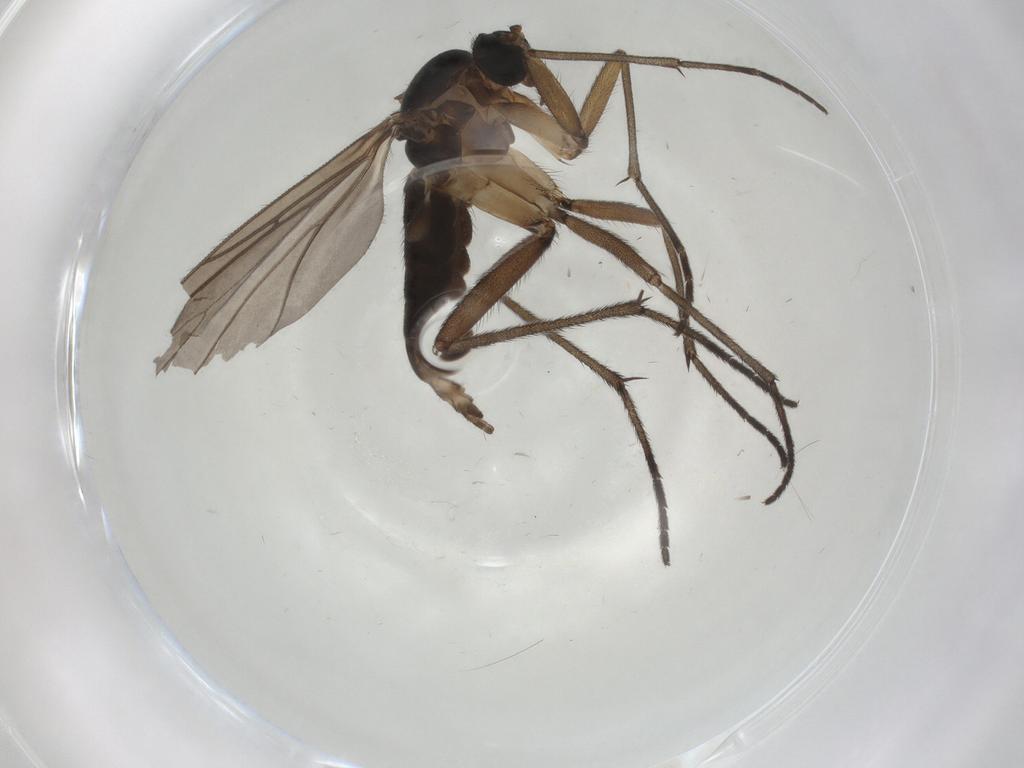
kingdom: Animalia
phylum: Arthropoda
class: Insecta
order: Diptera
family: Sciaridae
